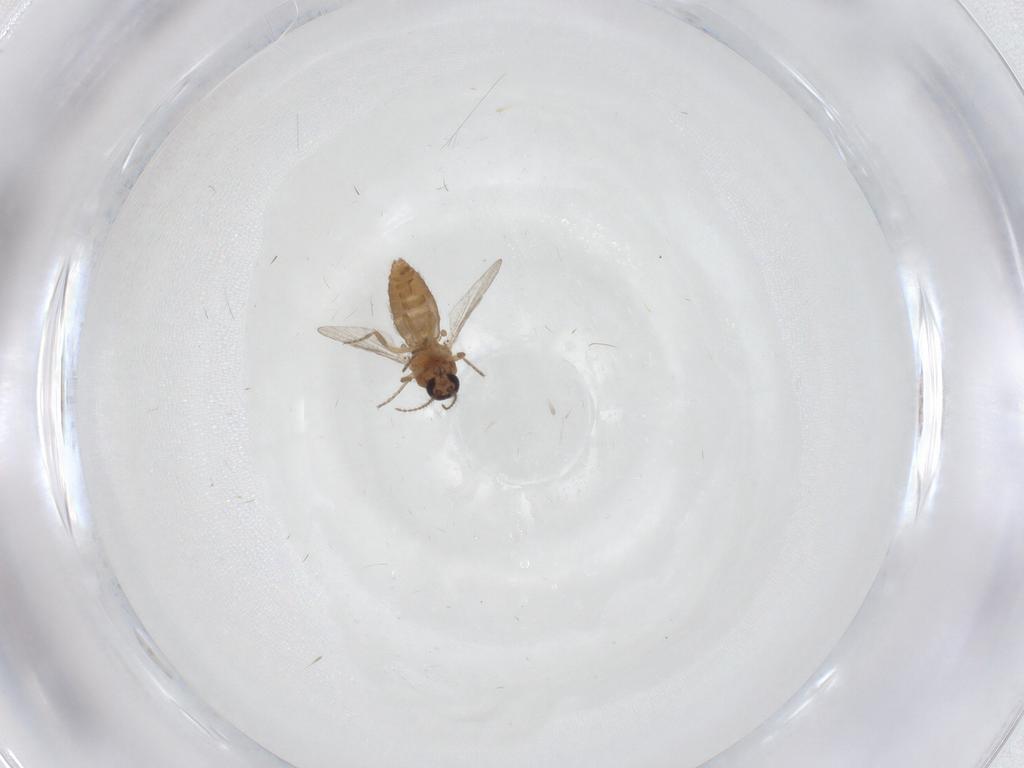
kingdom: Animalia
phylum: Arthropoda
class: Insecta
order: Diptera
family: Ceratopogonidae
